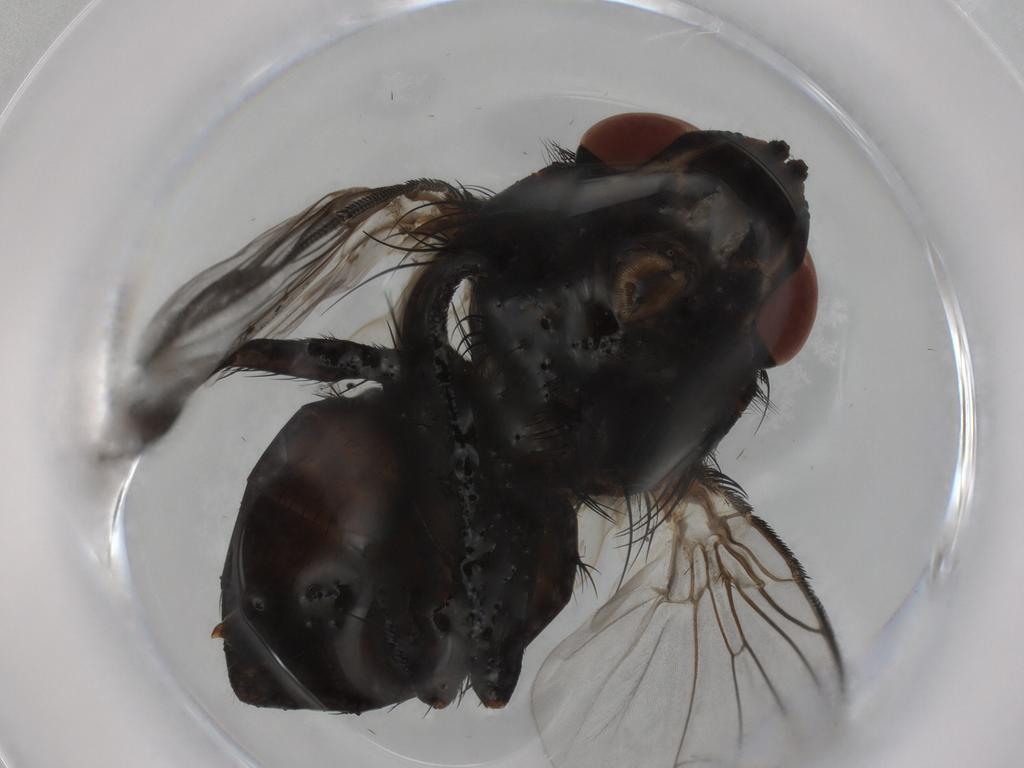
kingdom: Animalia
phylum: Arthropoda
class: Insecta
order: Diptera
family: Tachinidae
